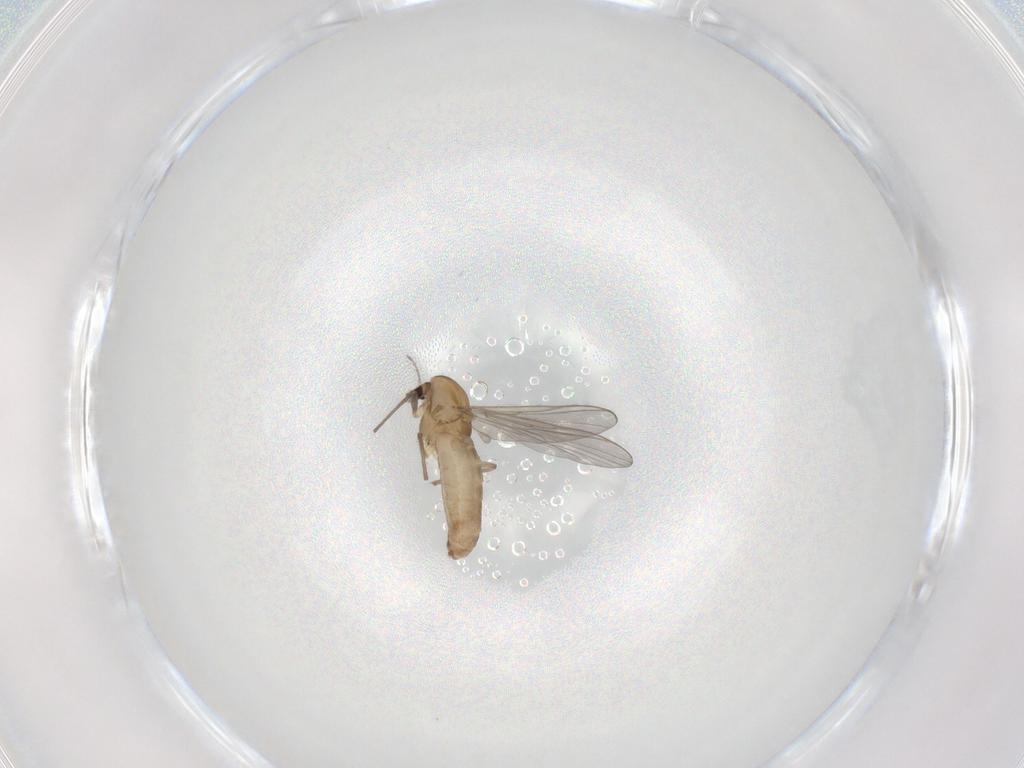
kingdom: Animalia
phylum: Arthropoda
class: Insecta
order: Diptera
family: Chironomidae
